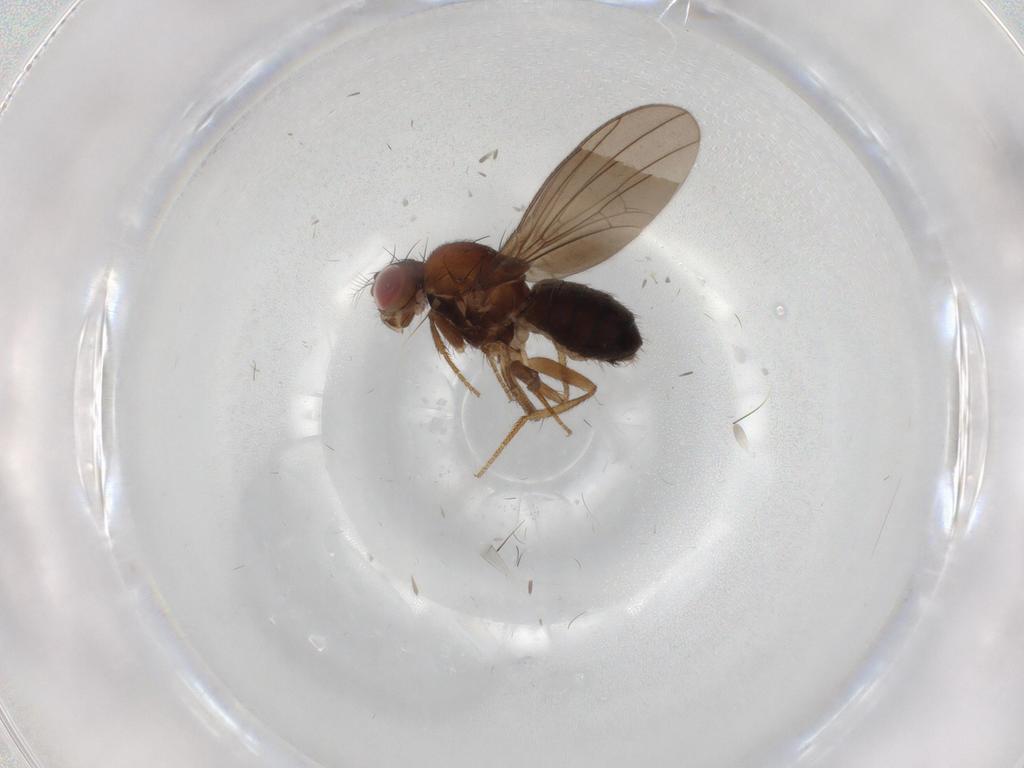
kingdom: Animalia
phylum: Arthropoda
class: Insecta
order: Diptera
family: Drosophilidae
